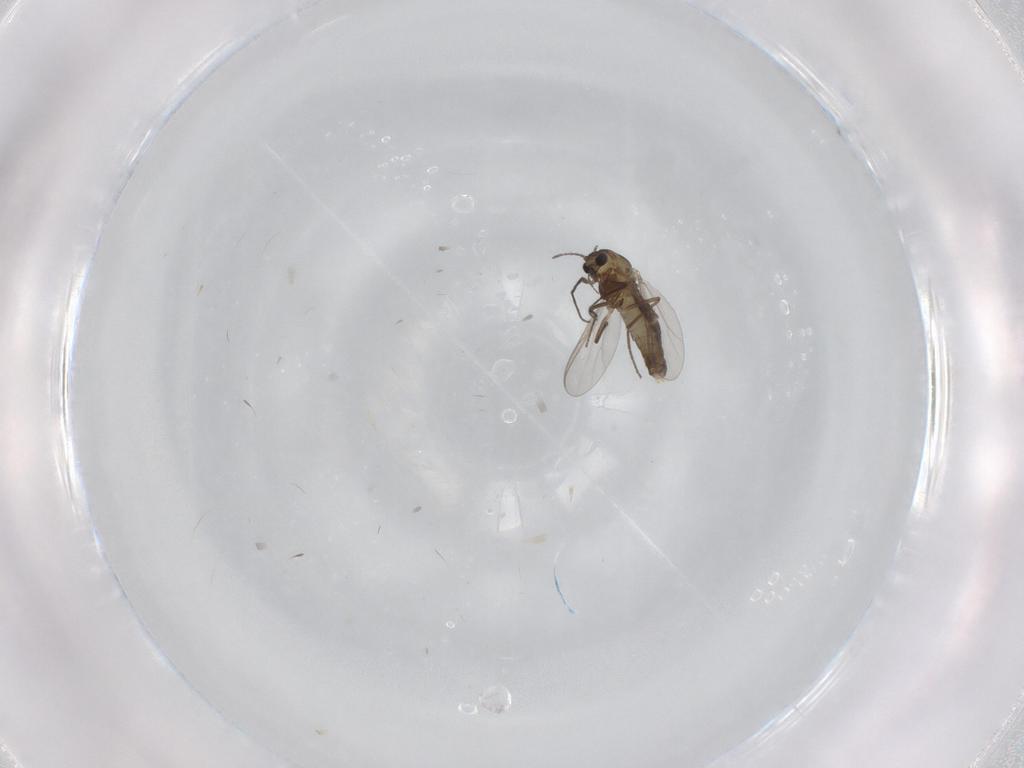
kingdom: Animalia
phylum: Arthropoda
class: Insecta
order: Diptera
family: Chironomidae
